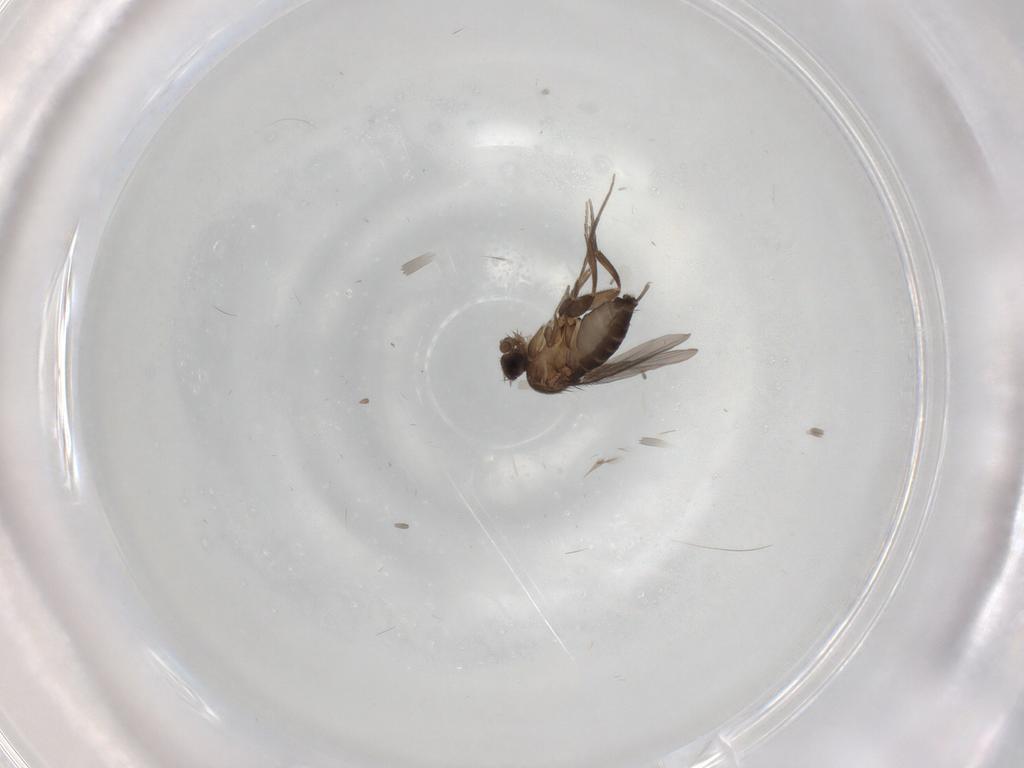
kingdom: Animalia
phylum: Arthropoda
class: Insecta
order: Diptera
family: Phoridae
